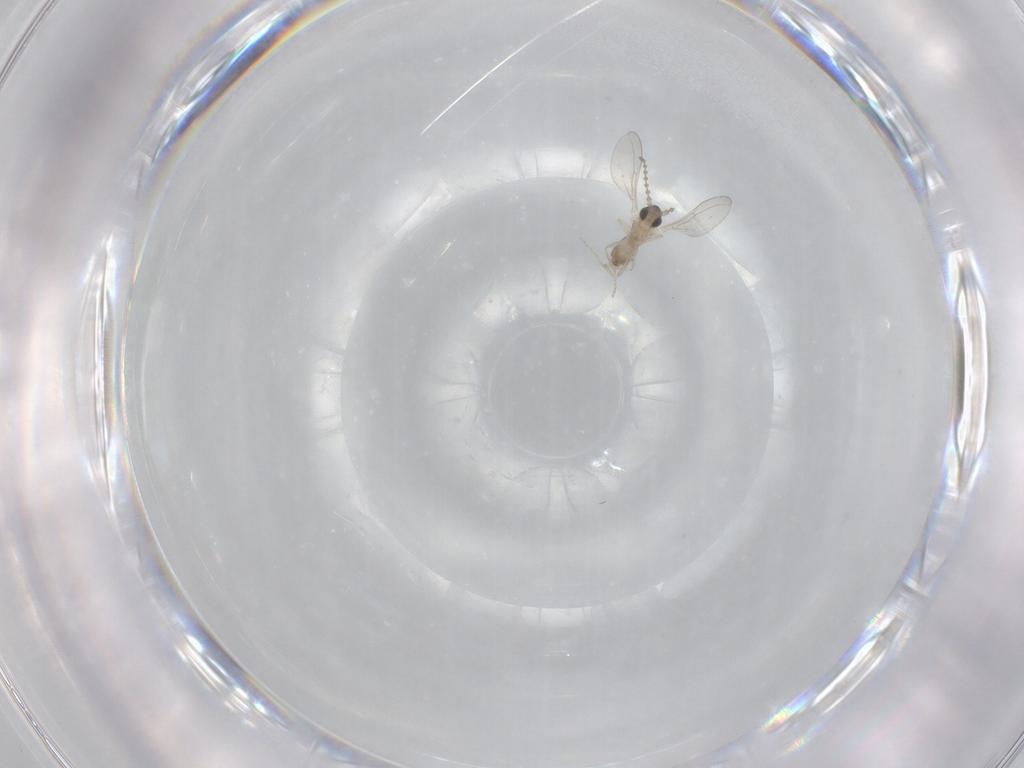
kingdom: Animalia
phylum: Arthropoda
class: Insecta
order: Diptera
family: Cecidomyiidae
